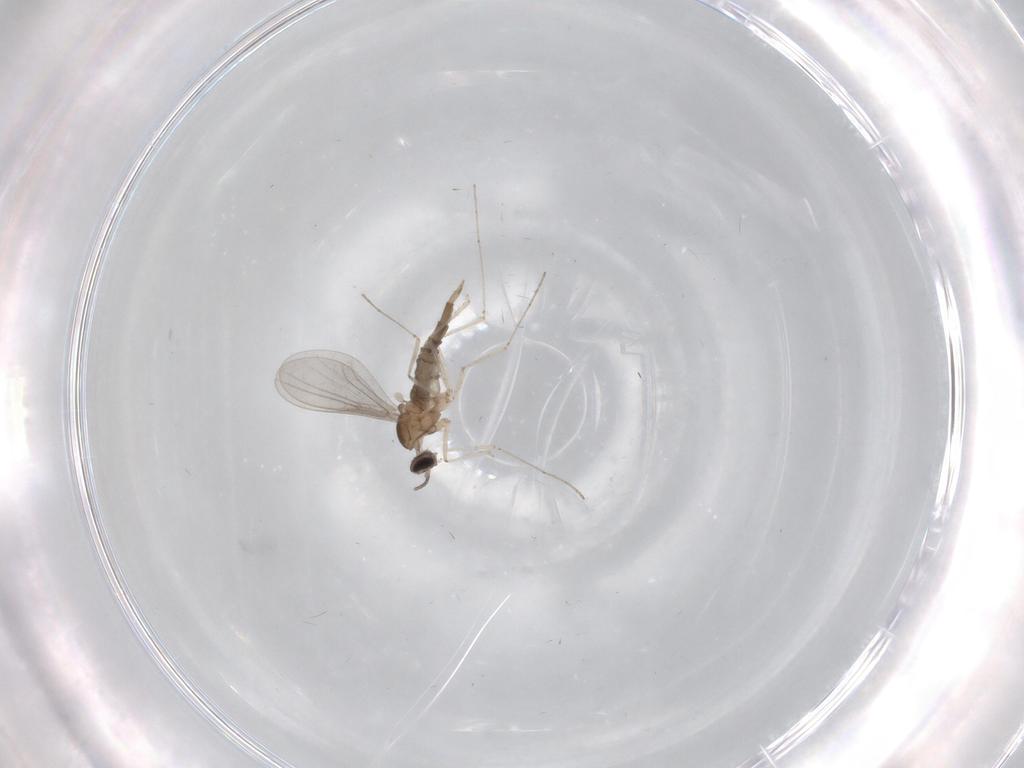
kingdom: Animalia
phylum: Arthropoda
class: Insecta
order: Diptera
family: Cecidomyiidae
